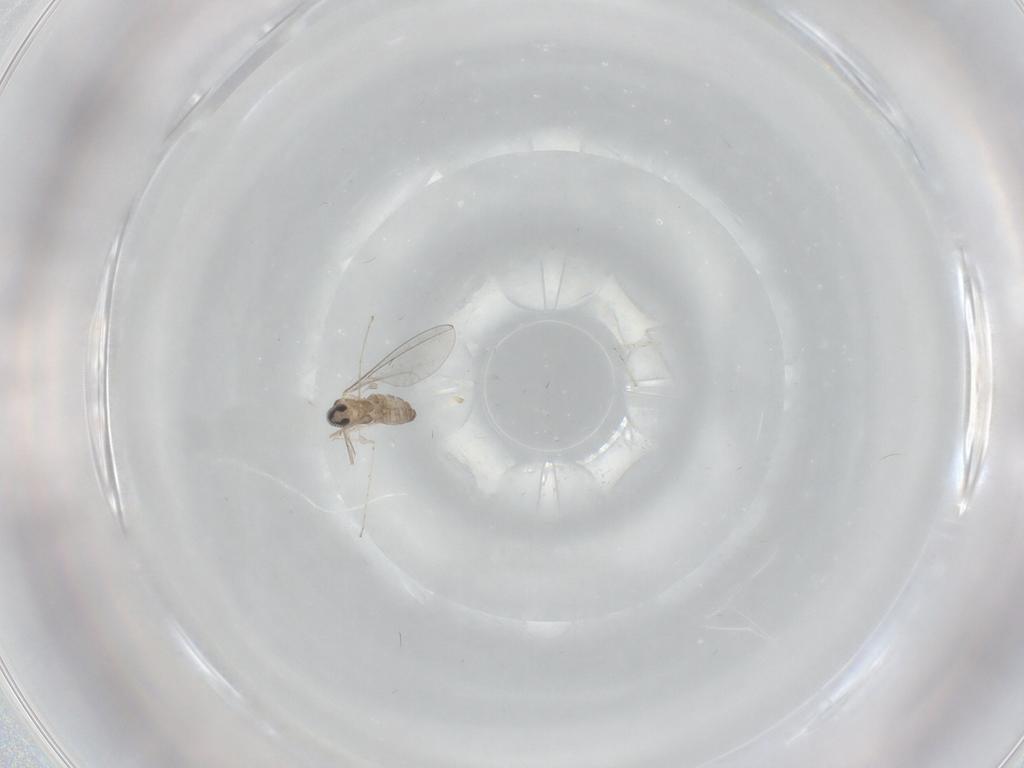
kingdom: Animalia
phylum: Arthropoda
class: Insecta
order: Diptera
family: Cecidomyiidae
